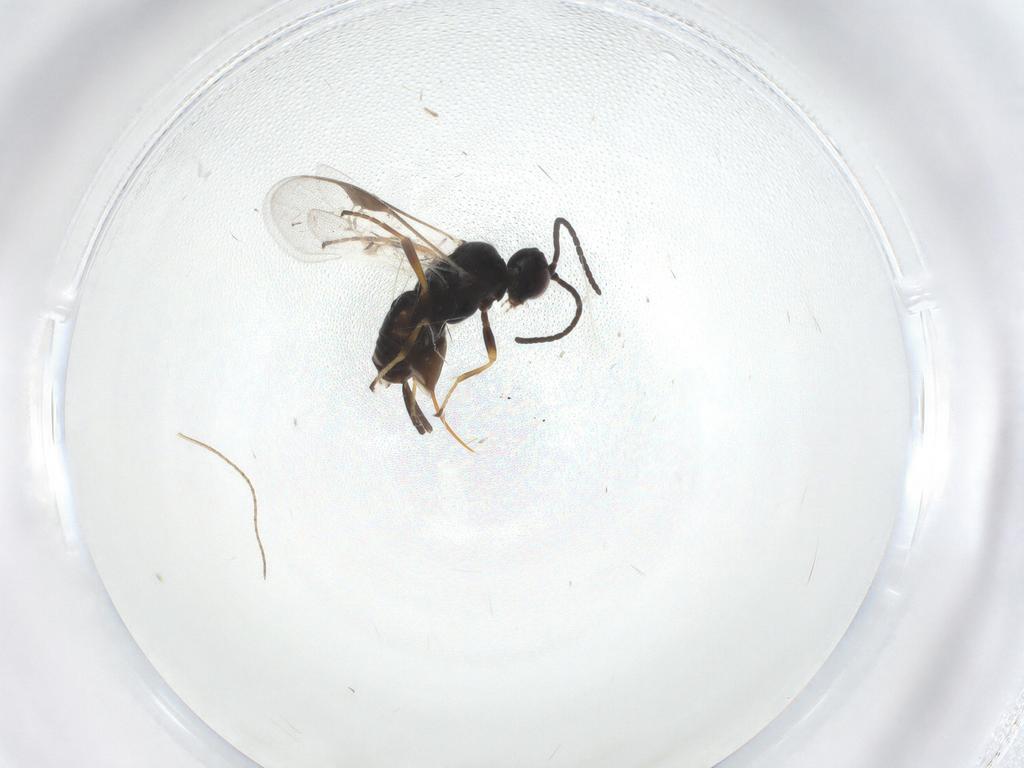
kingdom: Animalia
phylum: Arthropoda
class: Insecta
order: Hymenoptera
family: Braconidae
